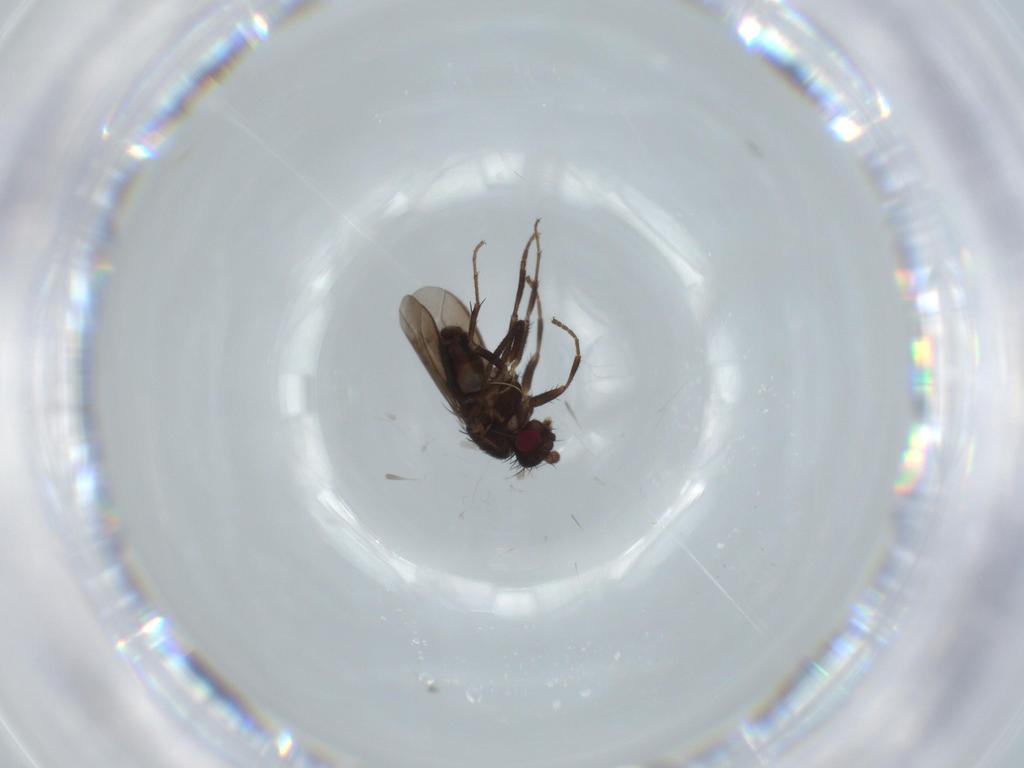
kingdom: Animalia
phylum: Arthropoda
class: Insecta
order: Diptera
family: Sphaeroceridae
